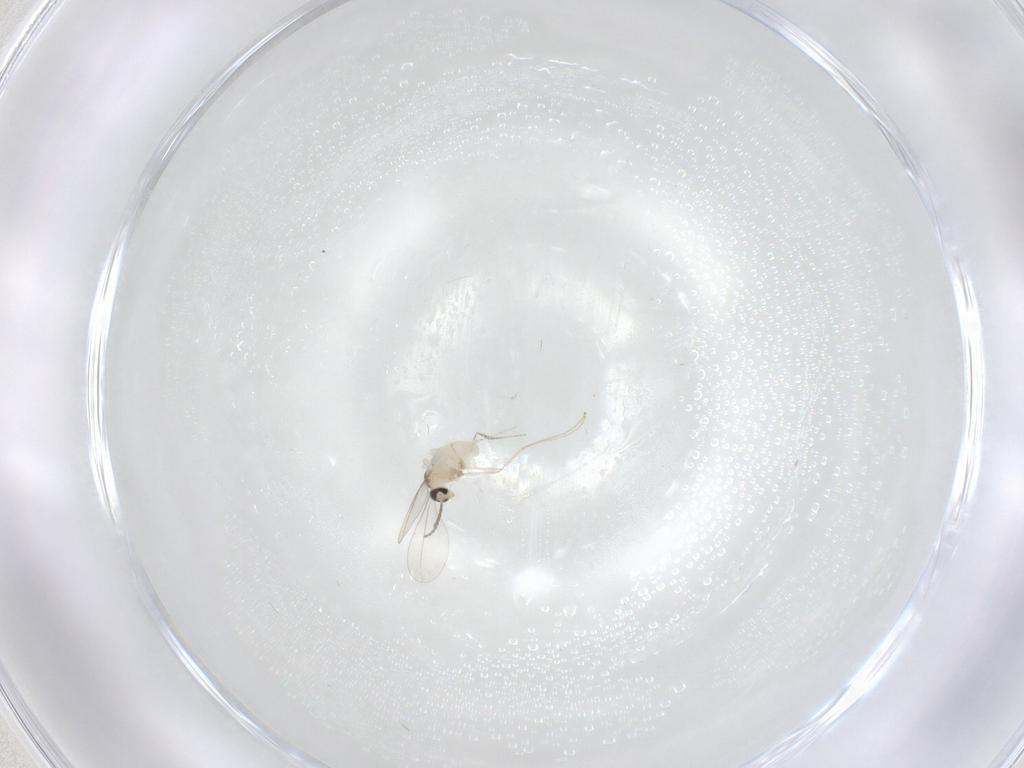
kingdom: Animalia
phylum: Arthropoda
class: Insecta
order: Diptera
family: Cecidomyiidae
